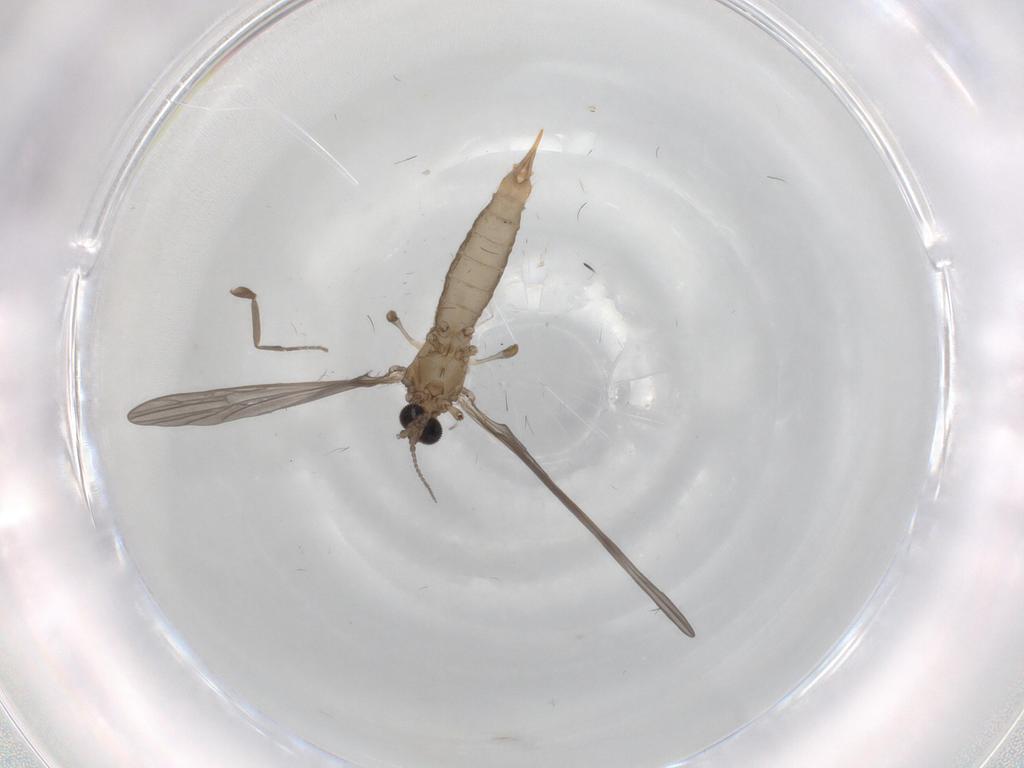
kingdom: Animalia
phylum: Arthropoda
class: Insecta
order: Diptera
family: Limoniidae
